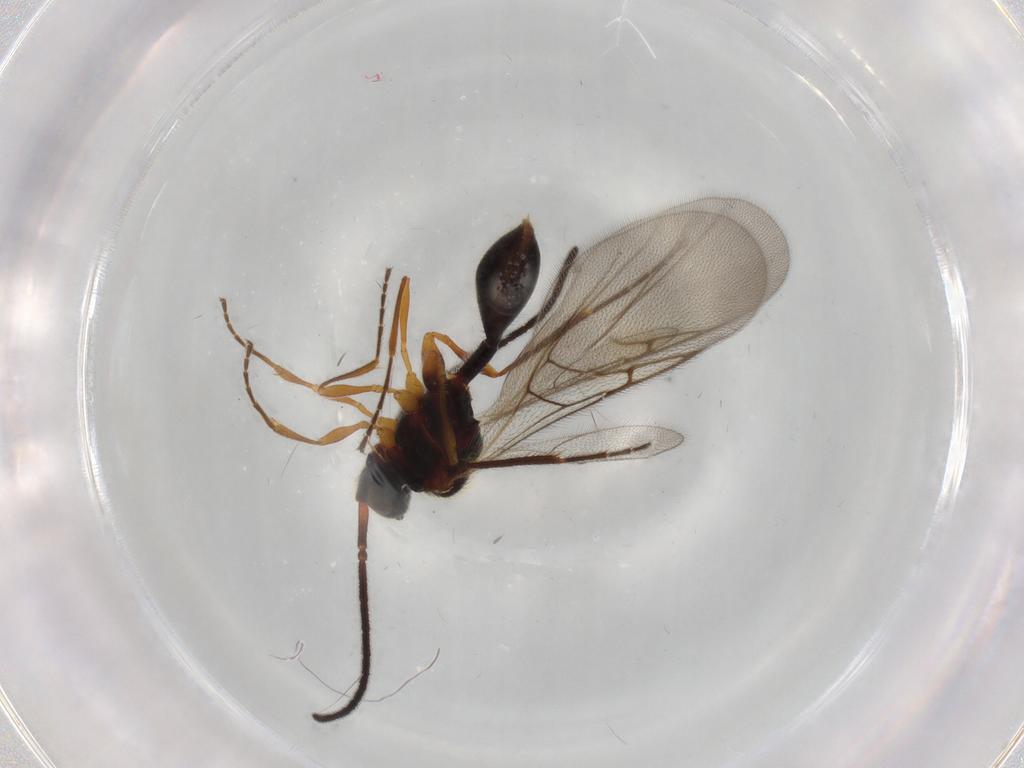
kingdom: Animalia
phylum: Arthropoda
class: Insecta
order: Hymenoptera
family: Diapriidae
